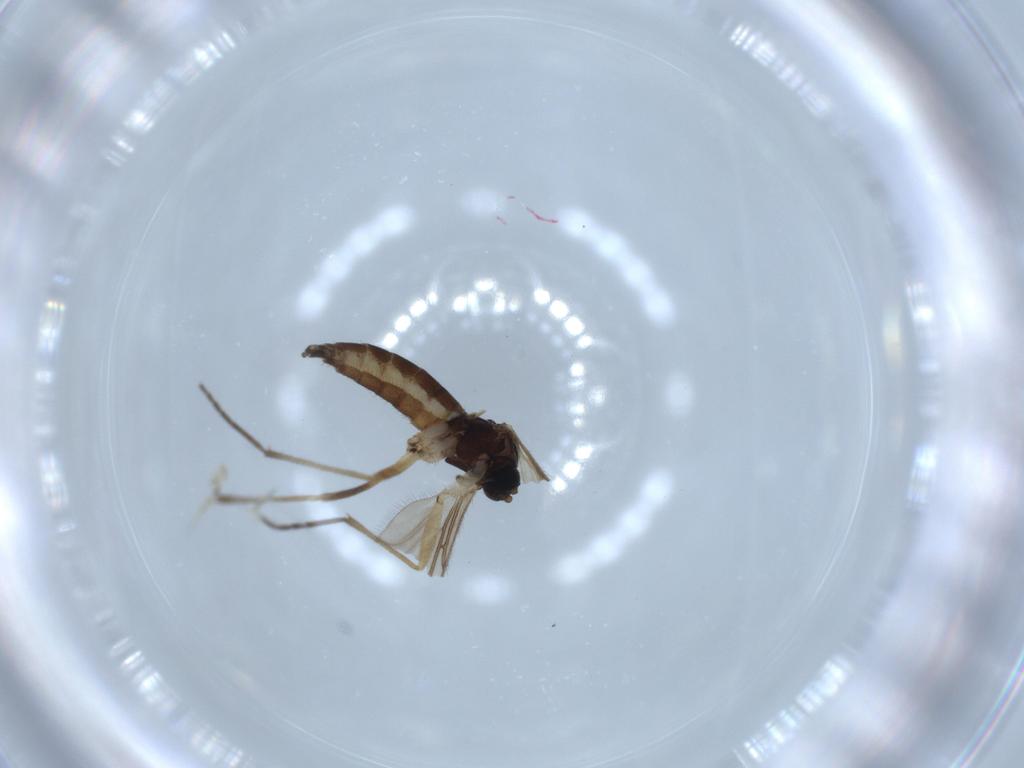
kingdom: Animalia
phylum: Arthropoda
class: Insecta
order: Diptera
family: Sciaridae
